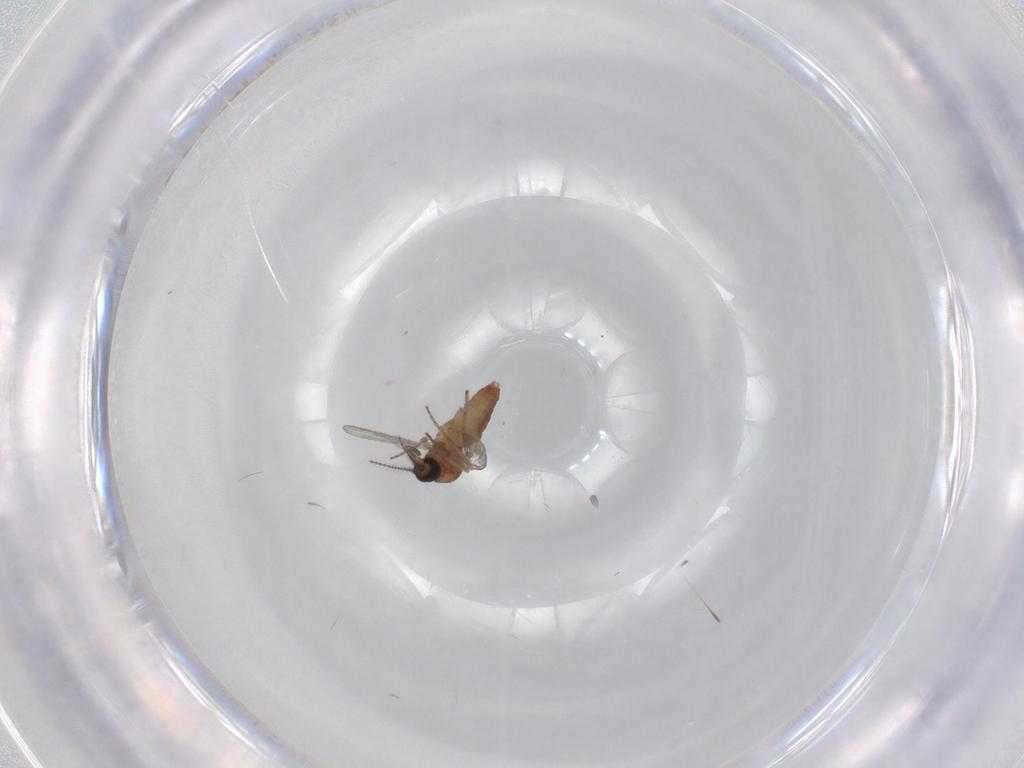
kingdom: Animalia
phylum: Arthropoda
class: Insecta
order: Diptera
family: Ceratopogonidae
